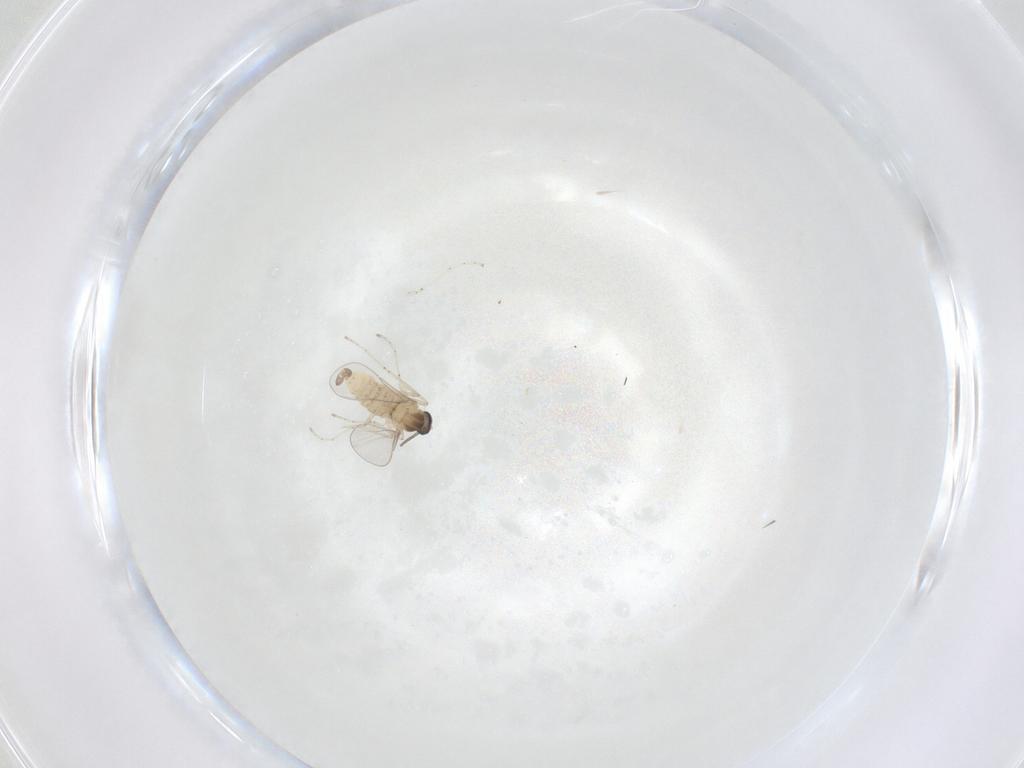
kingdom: Animalia
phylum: Arthropoda
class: Insecta
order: Diptera
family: Cecidomyiidae
